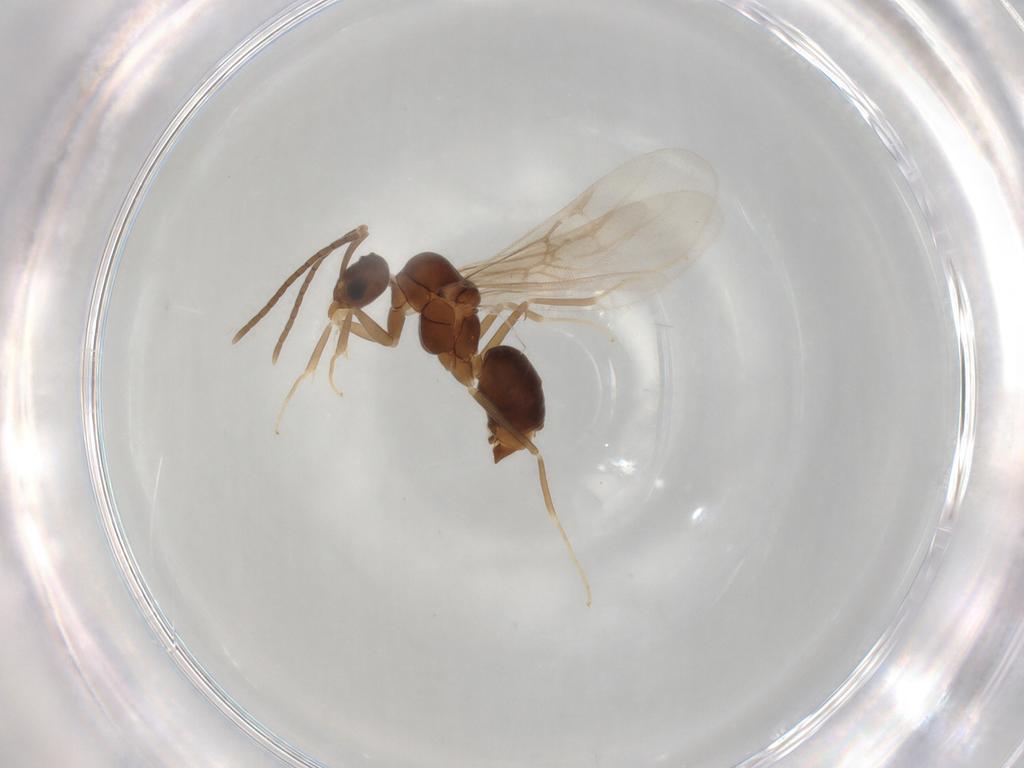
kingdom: Animalia
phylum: Arthropoda
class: Insecta
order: Hymenoptera
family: Formicidae
